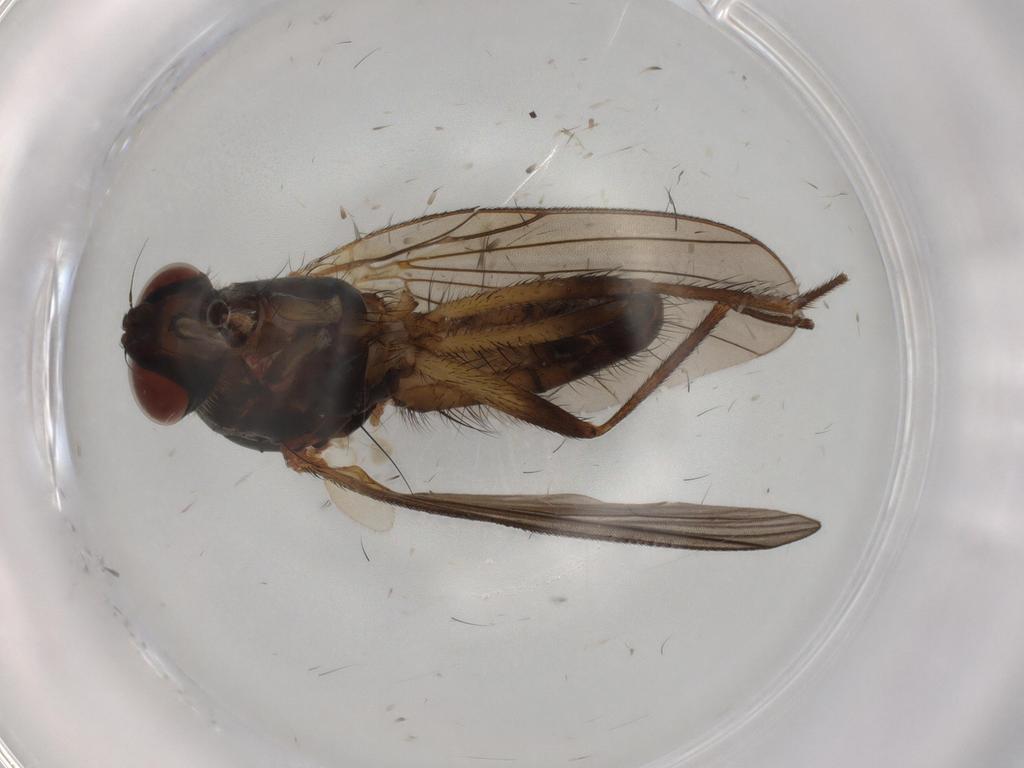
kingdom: Animalia
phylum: Arthropoda
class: Insecta
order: Diptera
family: Anthomyiidae
